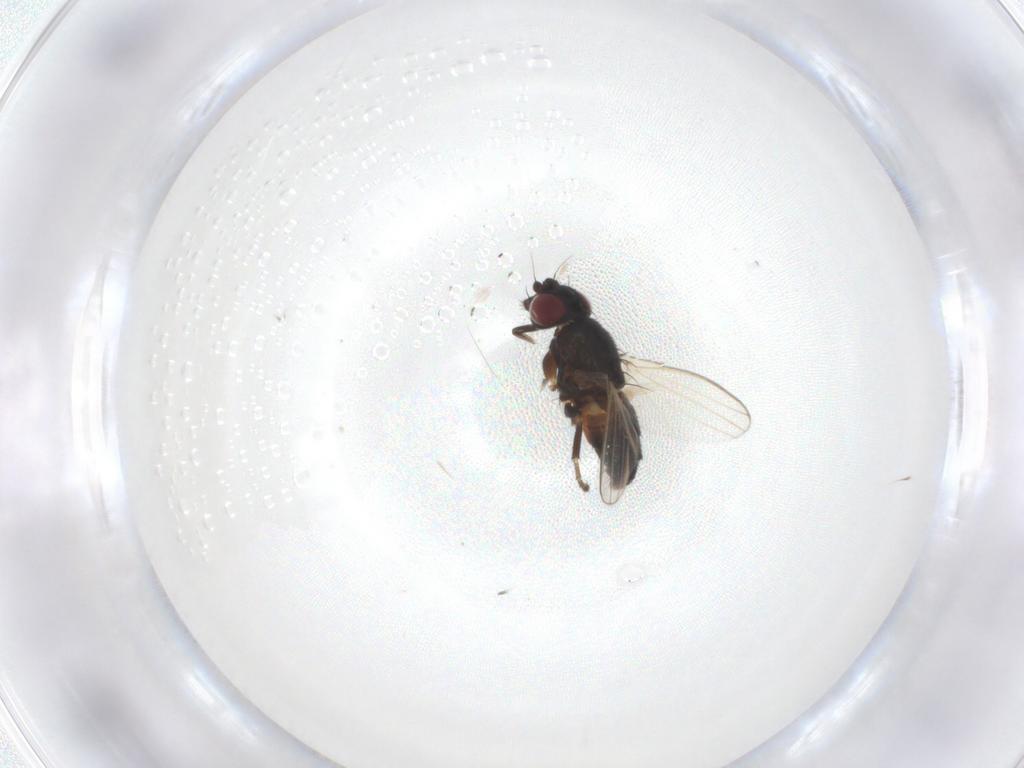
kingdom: Animalia
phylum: Arthropoda
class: Insecta
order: Diptera
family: Milichiidae
